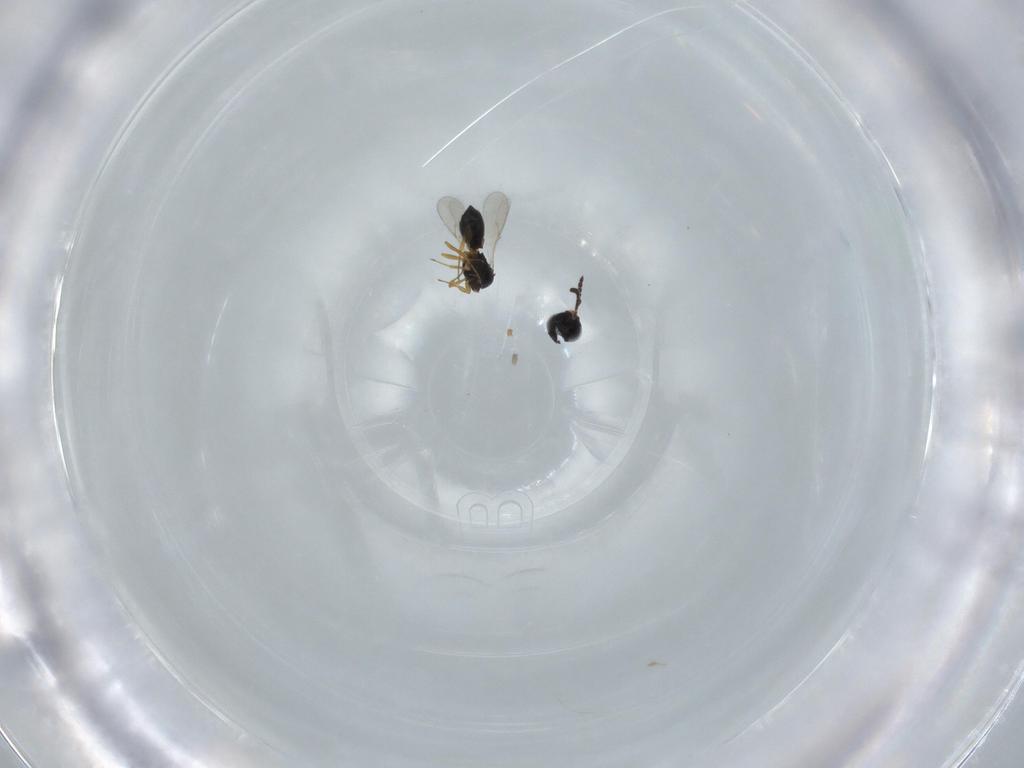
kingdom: Animalia
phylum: Arthropoda
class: Insecta
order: Hymenoptera
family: Scelionidae
